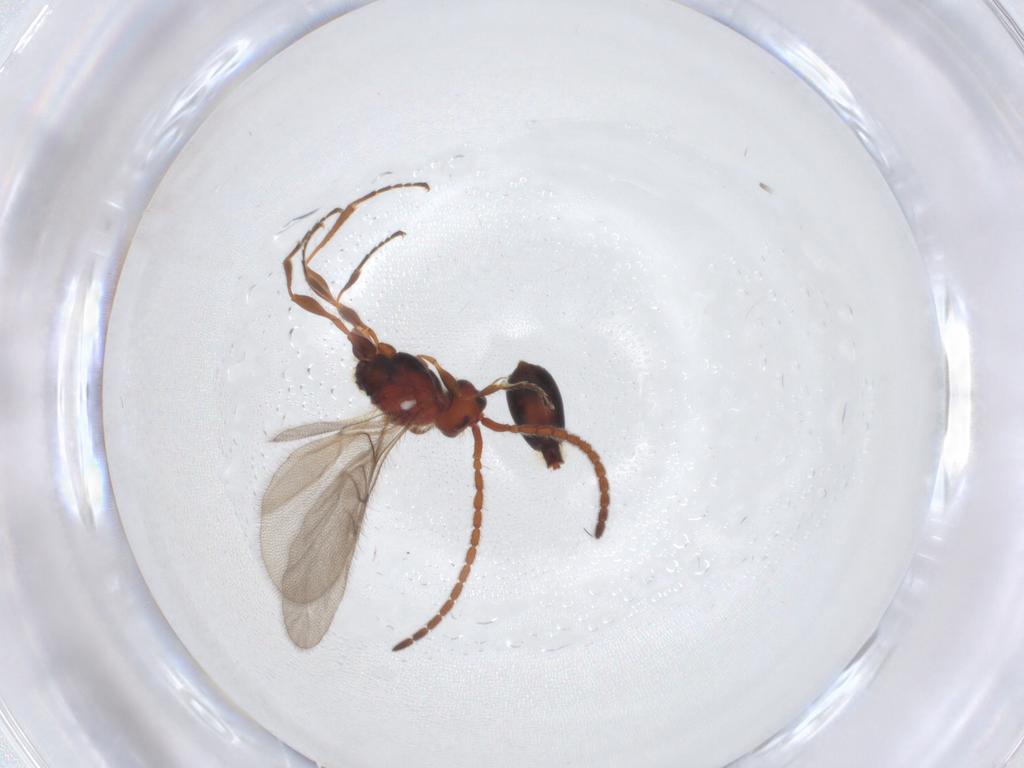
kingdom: Animalia
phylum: Arthropoda
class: Insecta
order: Hymenoptera
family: Diapriidae
